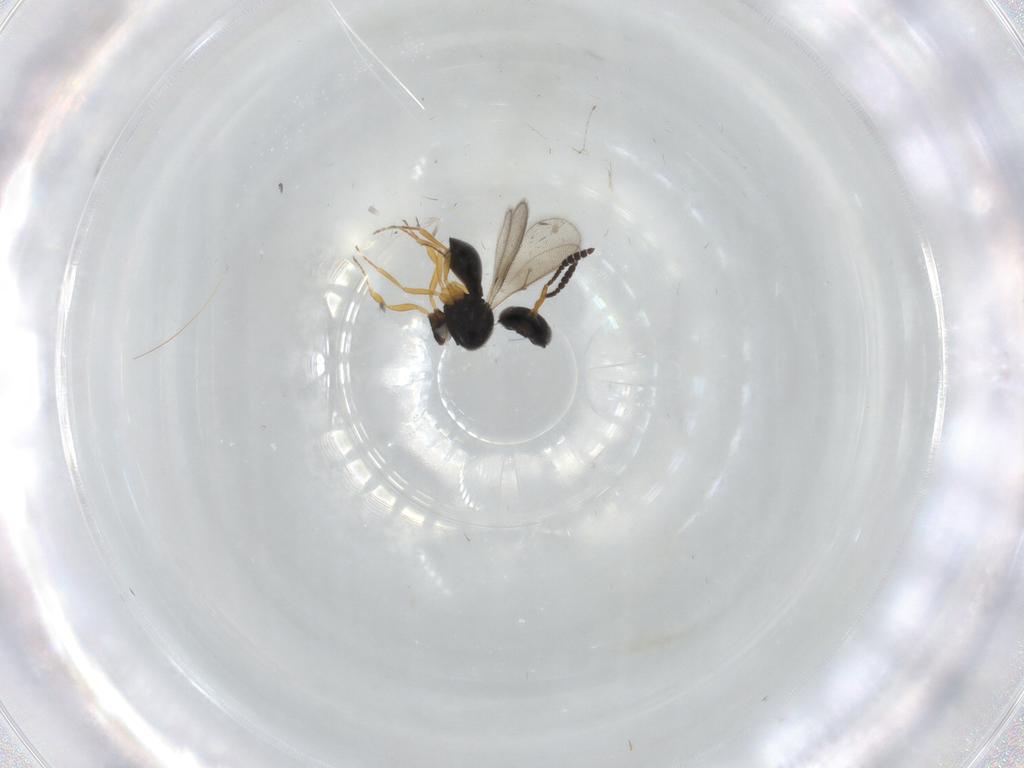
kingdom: Animalia
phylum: Arthropoda
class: Insecta
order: Hymenoptera
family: Scelionidae
